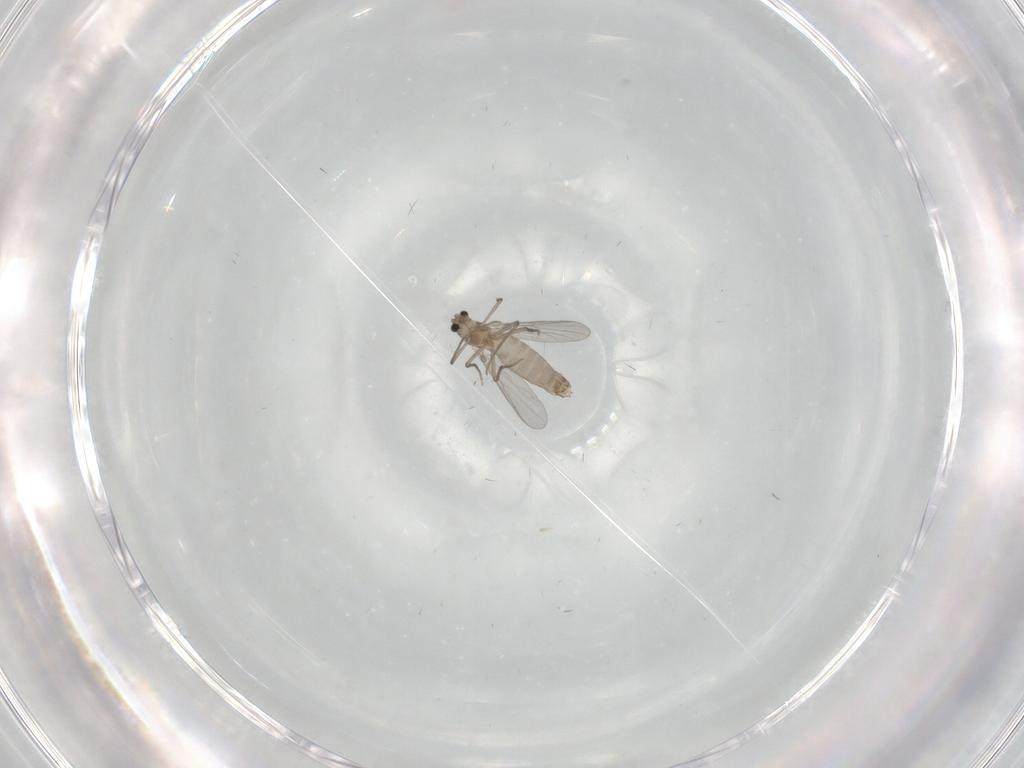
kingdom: Animalia
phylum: Arthropoda
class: Insecta
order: Diptera
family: Chironomidae
